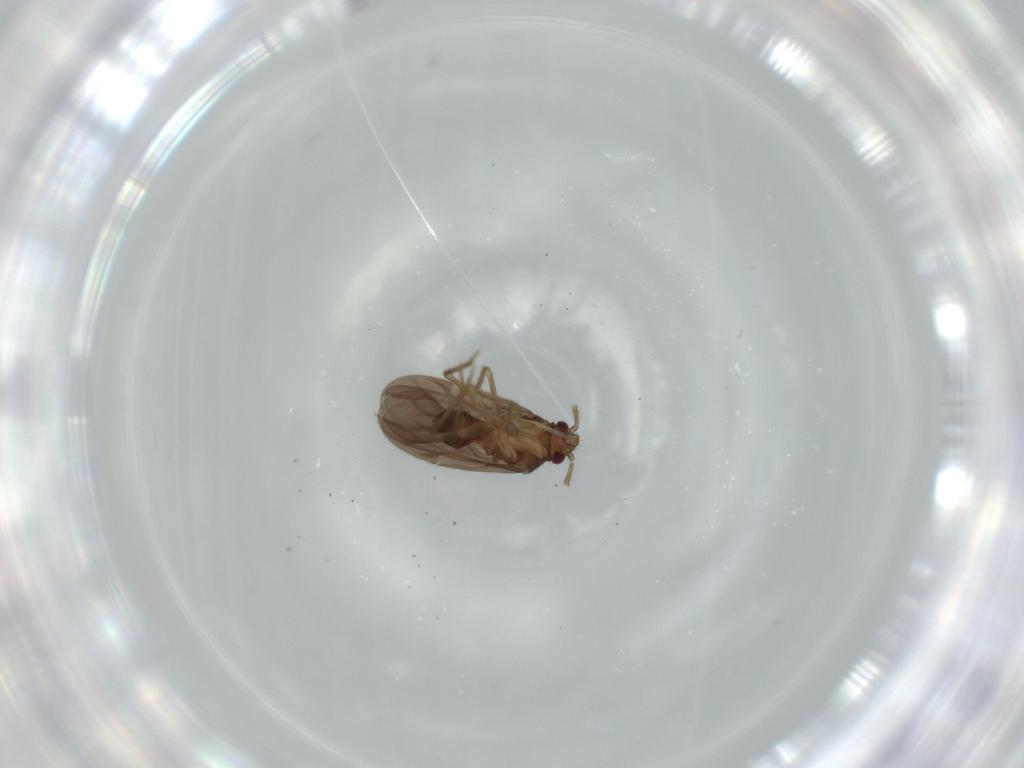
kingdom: Animalia
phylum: Arthropoda
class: Insecta
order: Hemiptera
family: Ceratocombidae
